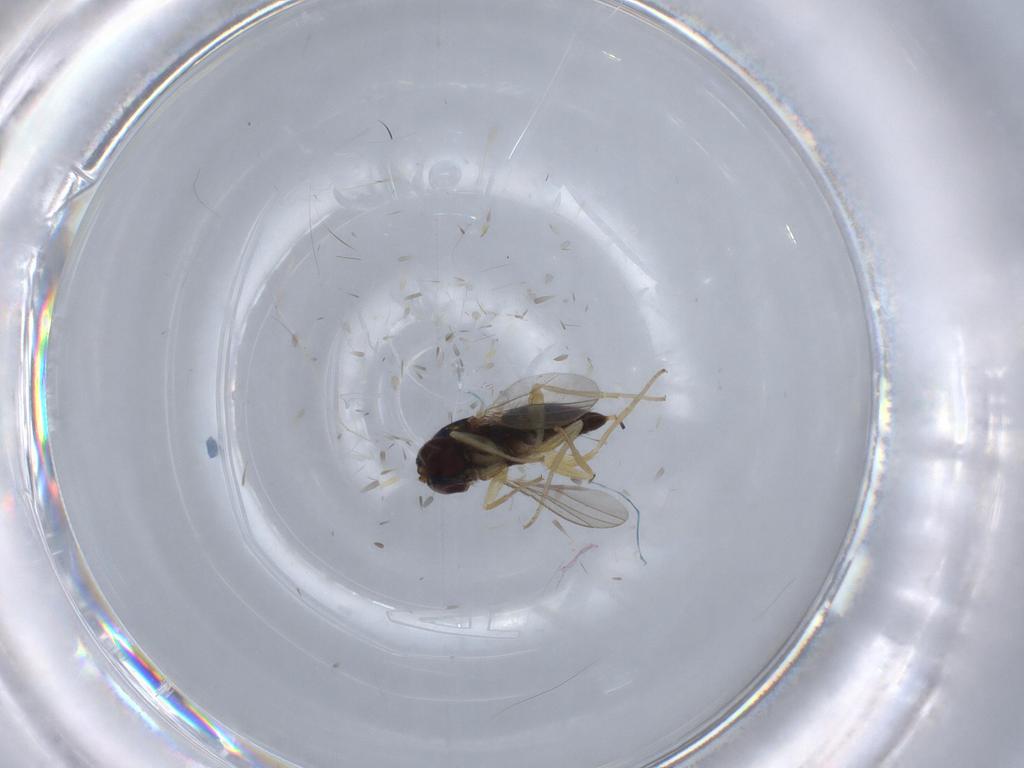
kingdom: Animalia
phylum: Arthropoda
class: Insecta
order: Diptera
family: Dolichopodidae
